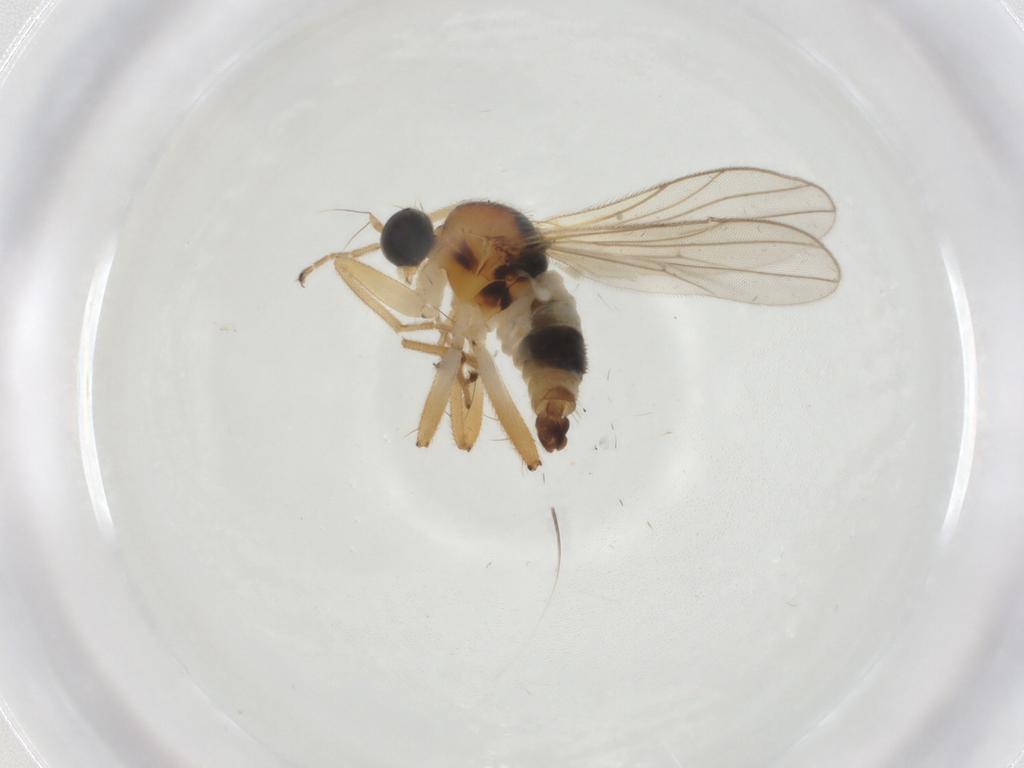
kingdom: Animalia
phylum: Arthropoda
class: Insecta
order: Diptera
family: Hybotidae
